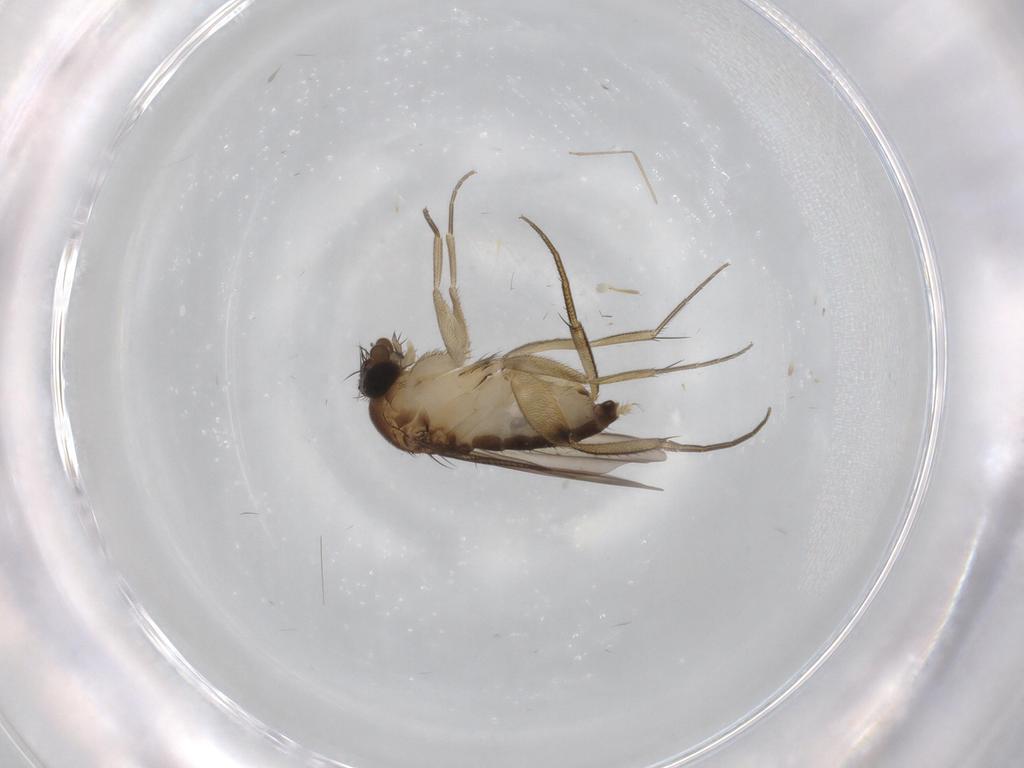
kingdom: Animalia
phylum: Arthropoda
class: Insecta
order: Diptera
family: Phoridae
